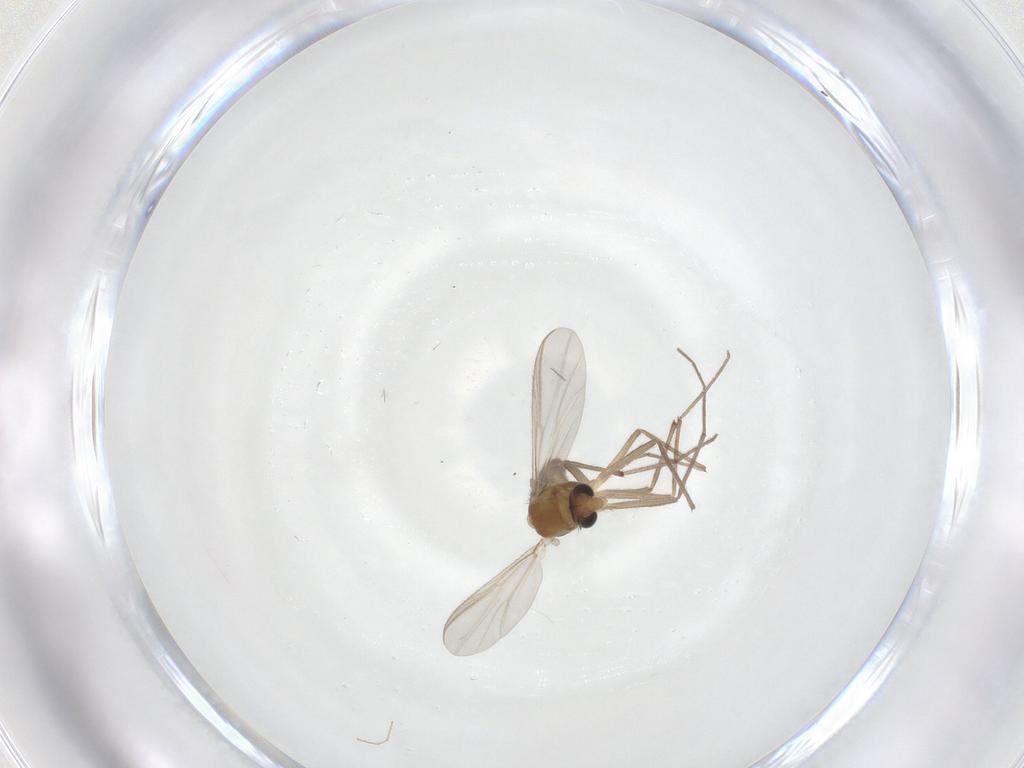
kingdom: Animalia
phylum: Arthropoda
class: Insecta
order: Diptera
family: Chironomidae
